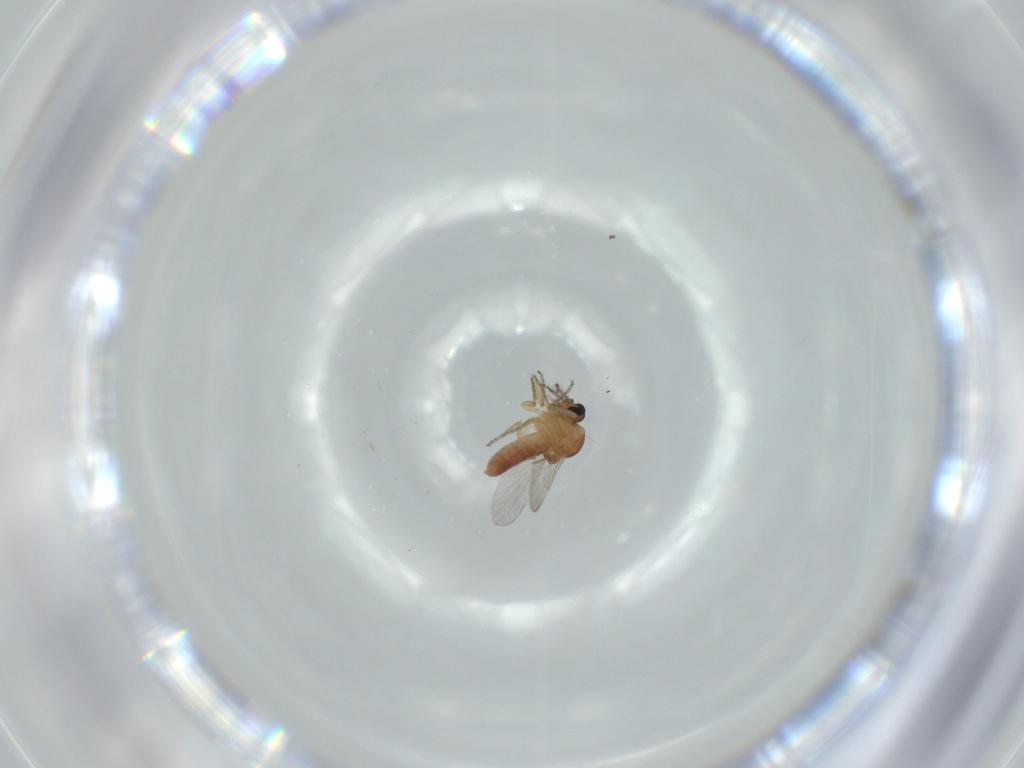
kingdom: Animalia
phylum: Arthropoda
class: Insecta
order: Diptera
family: Ceratopogonidae
